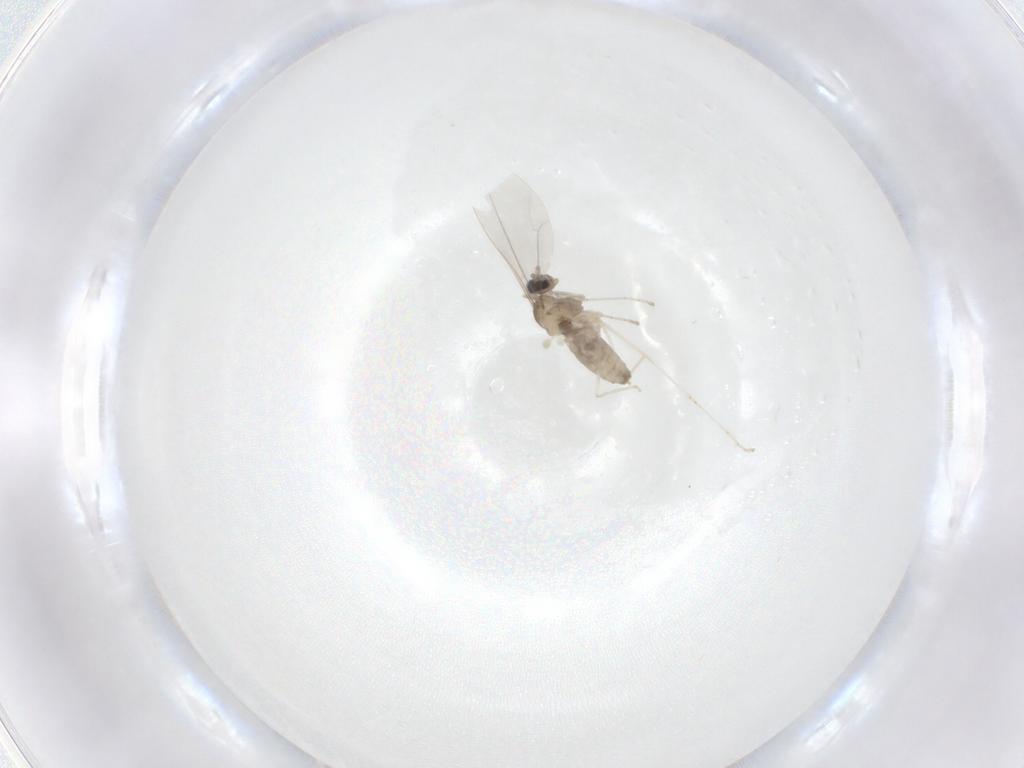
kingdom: Animalia
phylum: Arthropoda
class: Insecta
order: Diptera
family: Cecidomyiidae
